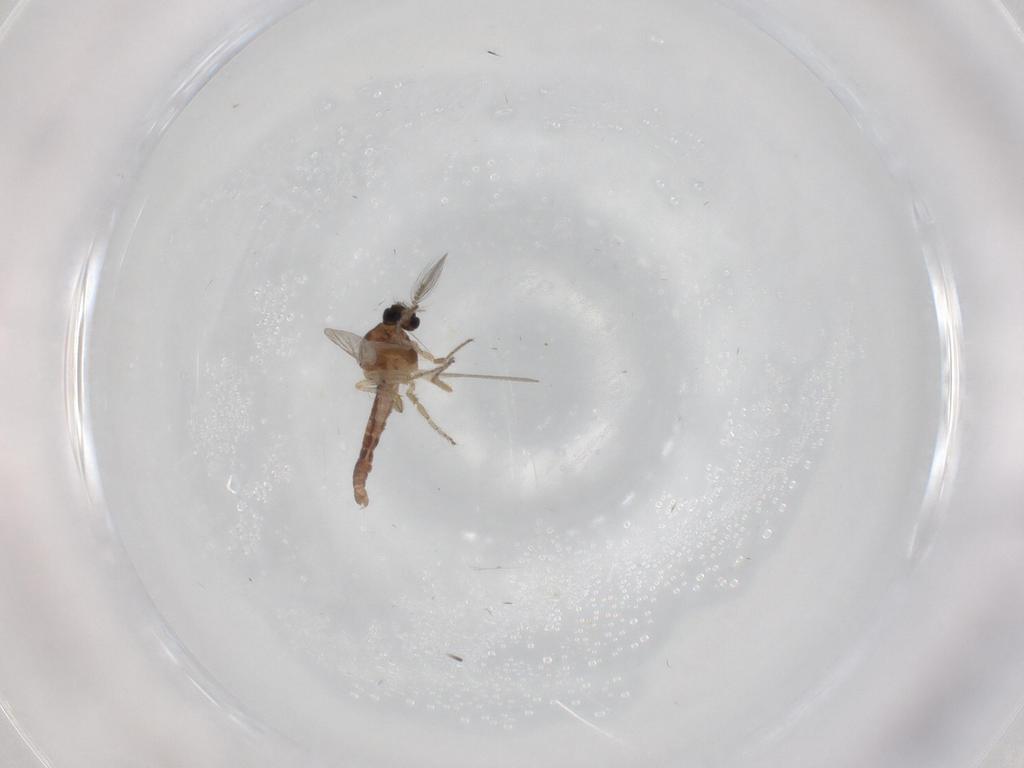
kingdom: Animalia
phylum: Arthropoda
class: Insecta
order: Diptera
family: Ceratopogonidae
